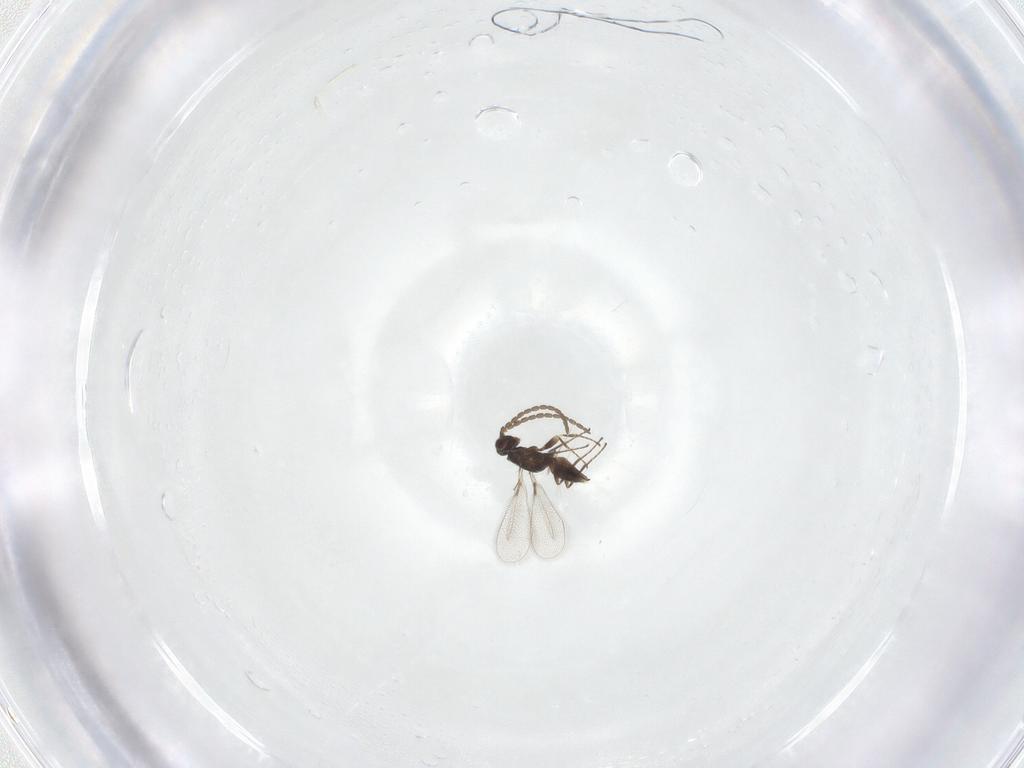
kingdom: Animalia
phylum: Arthropoda
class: Insecta
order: Hymenoptera
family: Mymaridae
